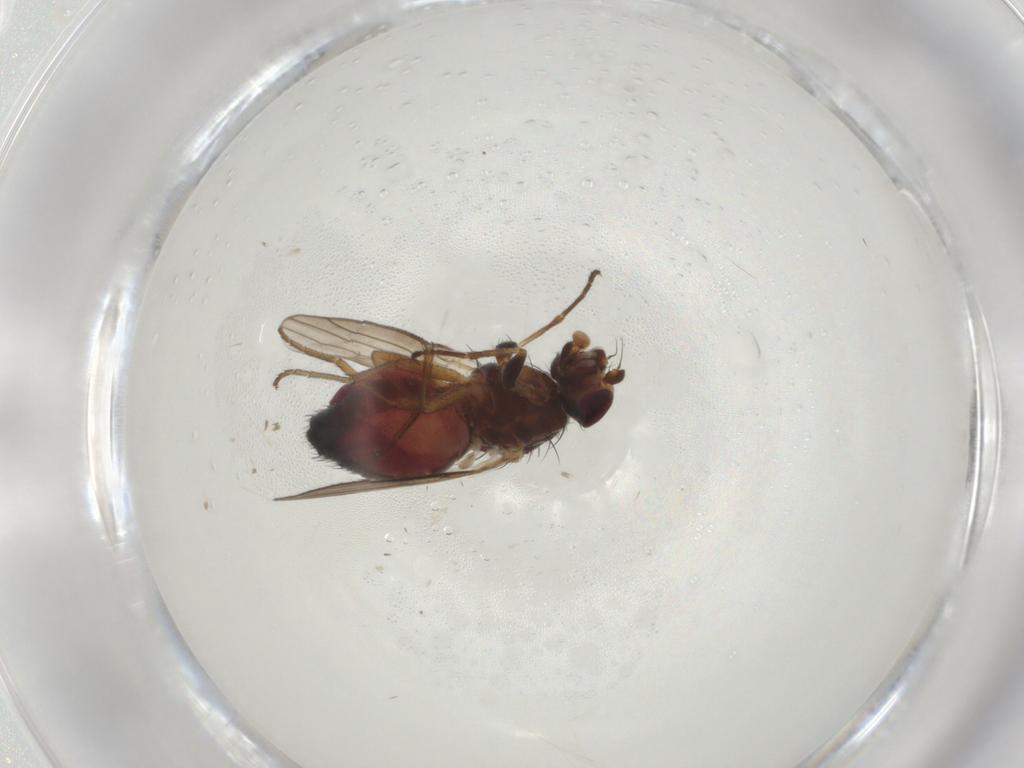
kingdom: Animalia
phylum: Arthropoda
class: Insecta
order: Diptera
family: Heleomyzidae
